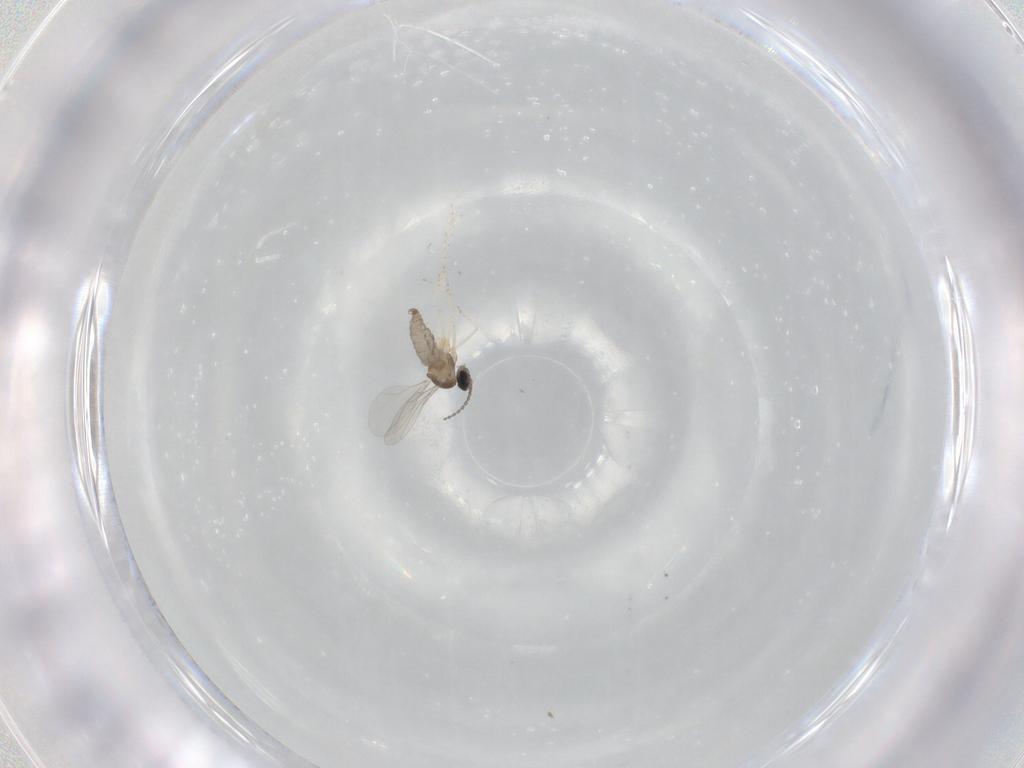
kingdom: Animalia
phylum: Arthropoda
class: Insecta
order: Diptera
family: Cecidomyiidae
